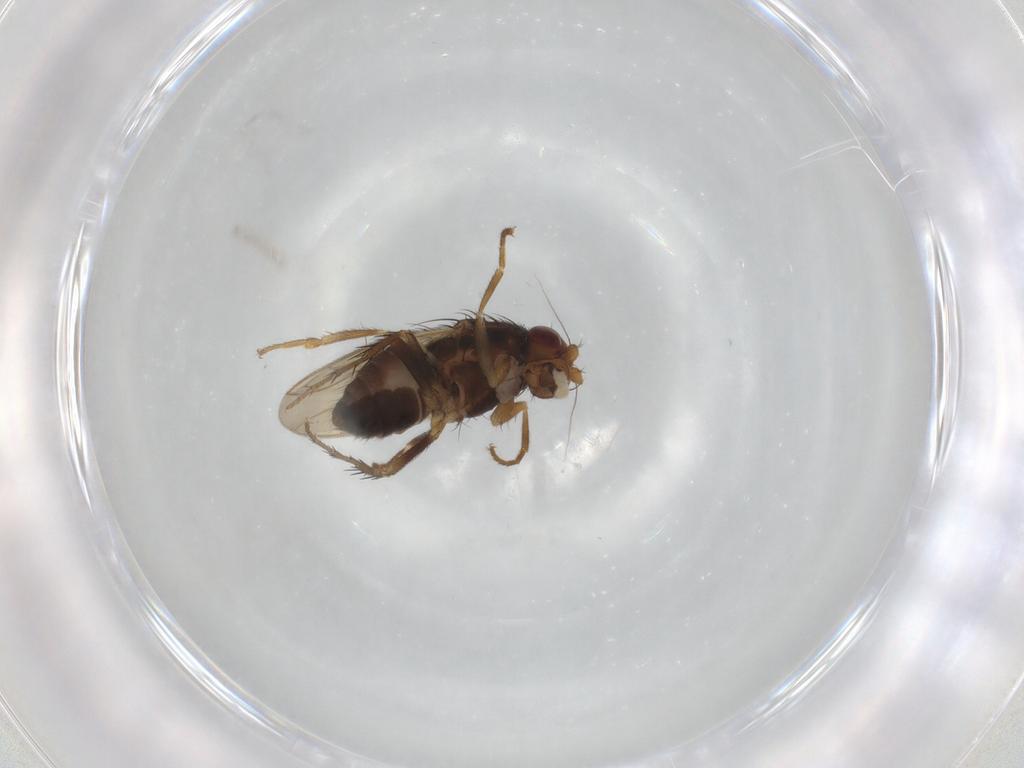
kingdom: Animalia
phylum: Arthropoda
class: Insecta
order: Diptera
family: Sphaeroceridae
